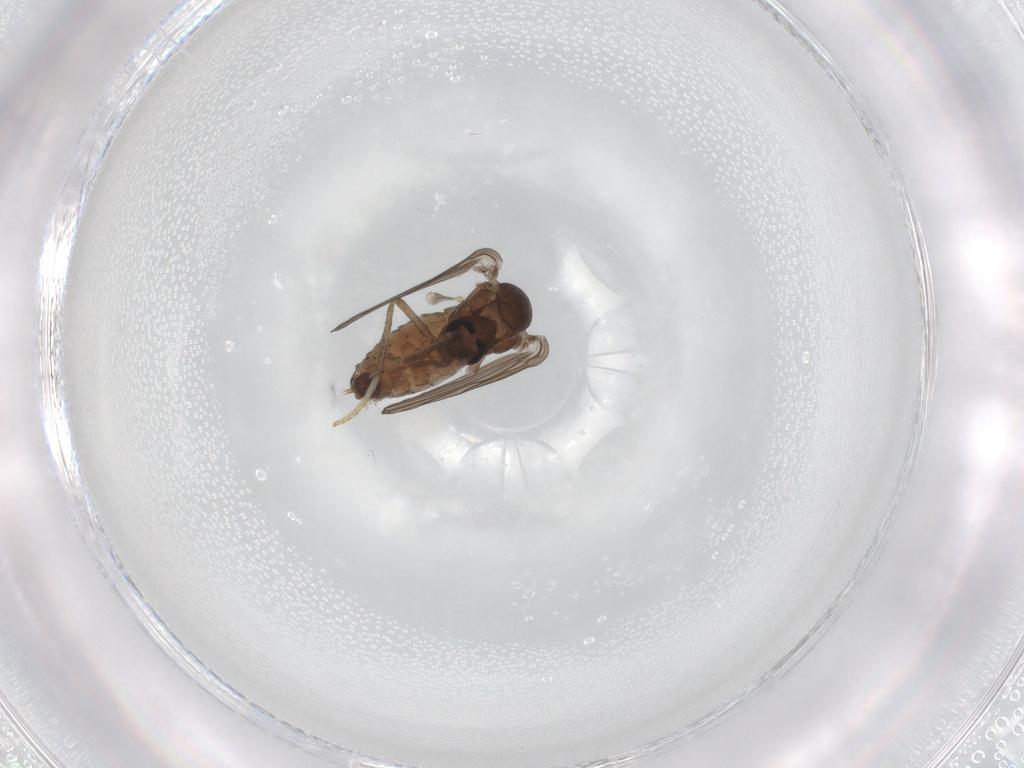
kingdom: Animalia
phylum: Arthropoda
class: Insecta
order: Diptera
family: Psychodidae
